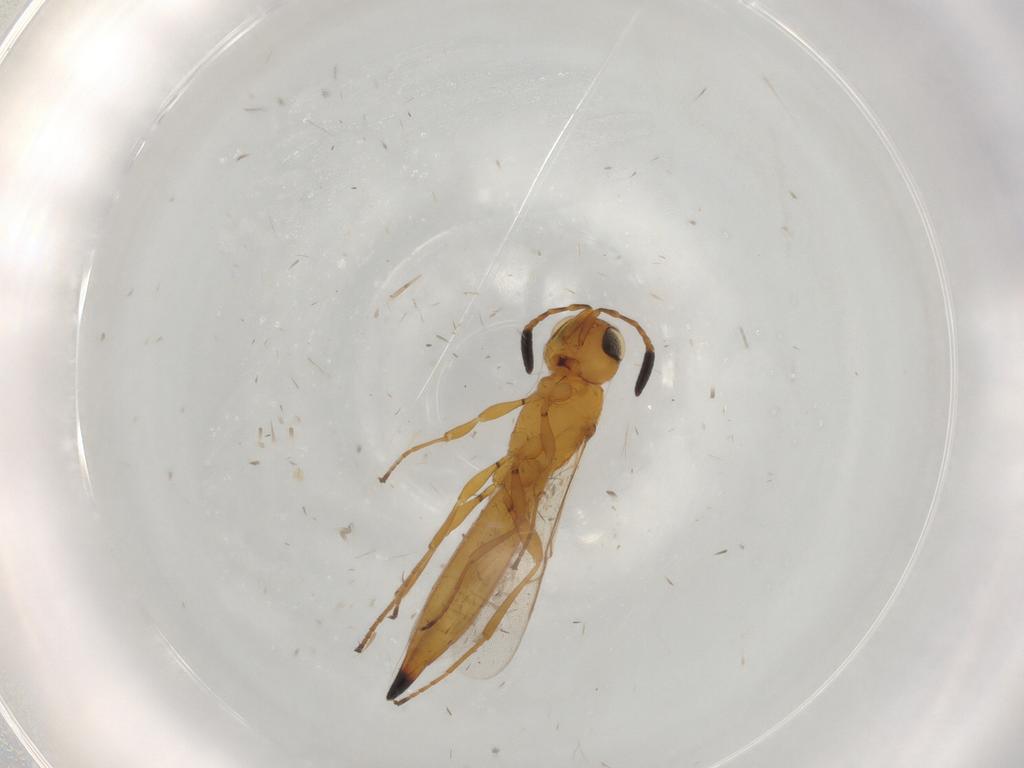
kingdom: Animalia
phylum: Arthropoda
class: Insecta
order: Hymenoptera
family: Scelionidae
